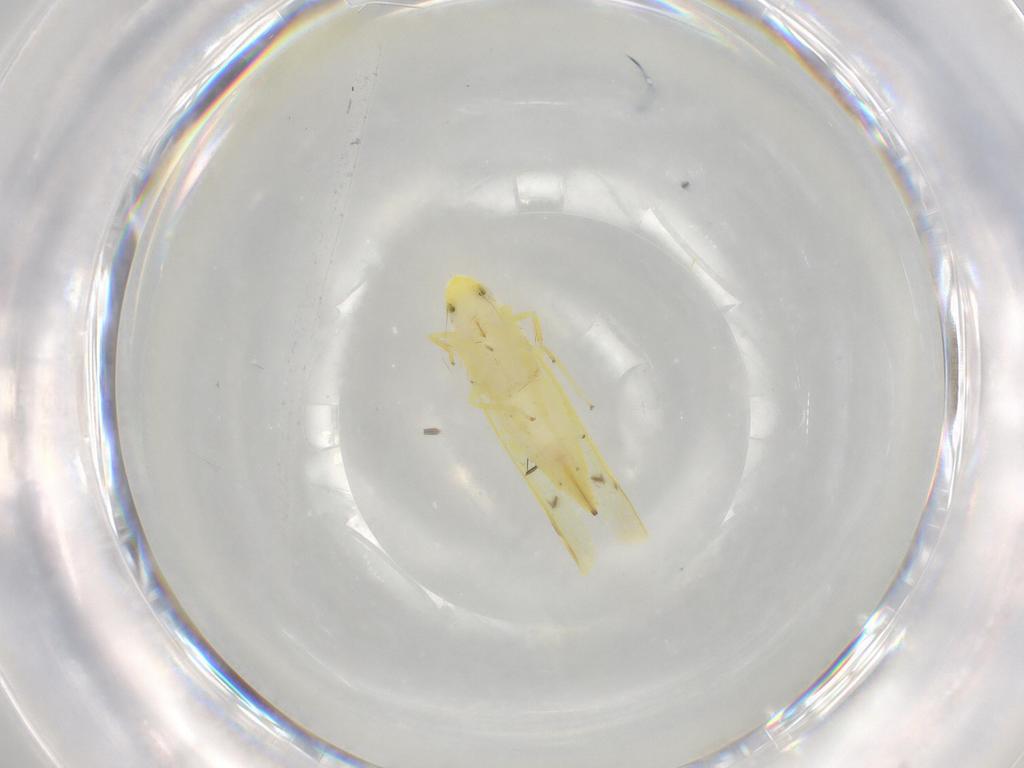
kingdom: Animalia
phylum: Arthropoda
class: Insecta
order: Hemiptera
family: Cicadellidae
